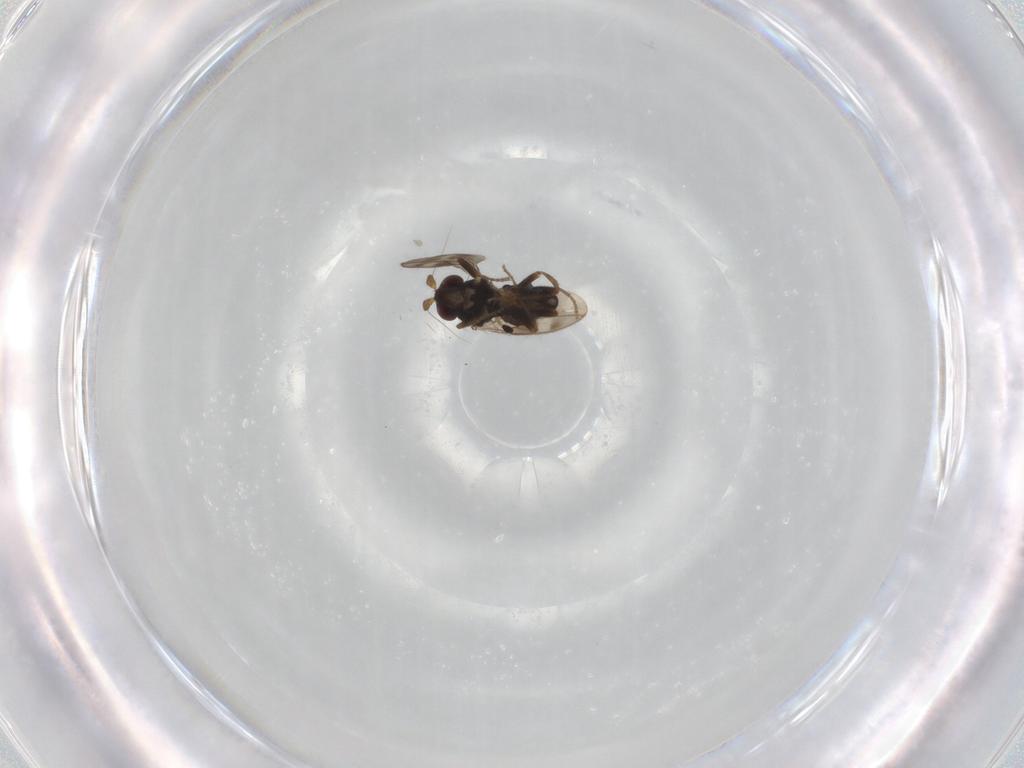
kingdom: Animalia
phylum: Arthropoda
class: Insecta
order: Diptera
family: Sphaeroceridae
